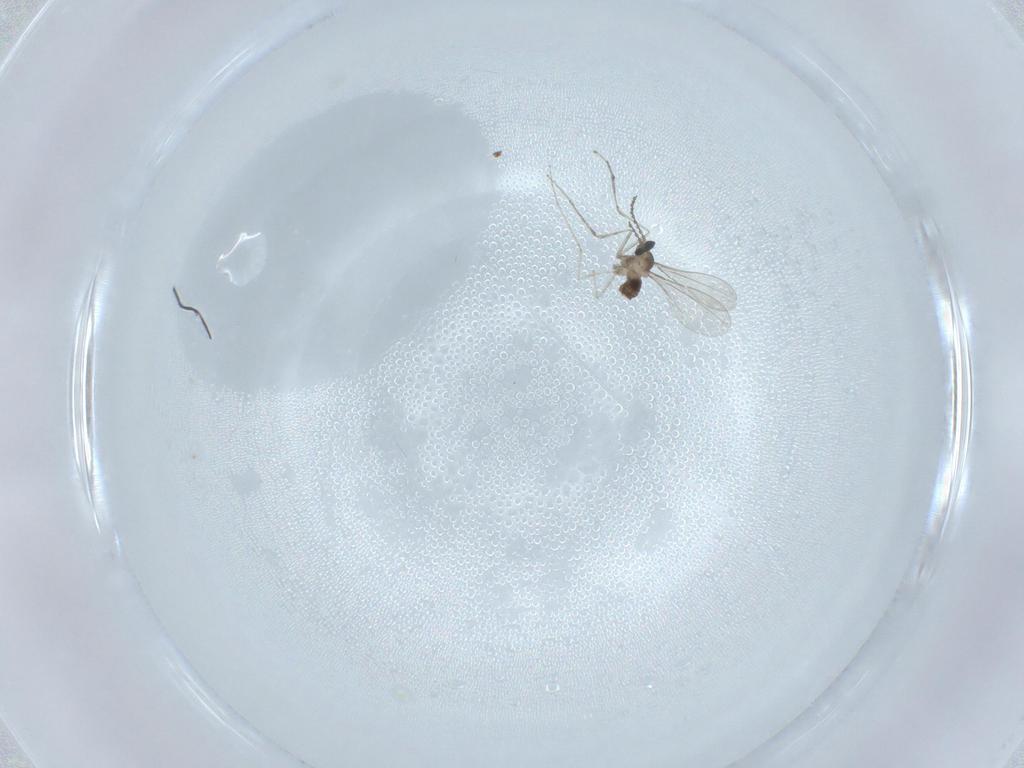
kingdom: Animalia
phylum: Arthropoda
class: Insecta
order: Diptera
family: Cecidomyiidae
